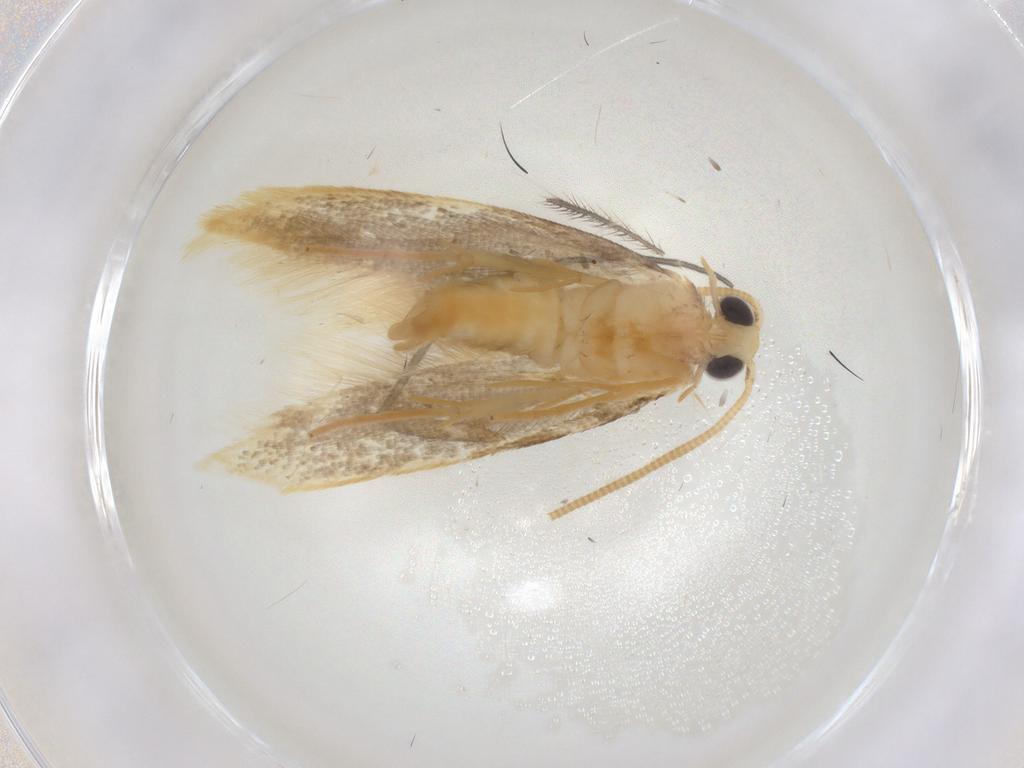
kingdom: Animalia
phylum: Arthropoda
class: Insecta
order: Lepidoptera
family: Tineidae
